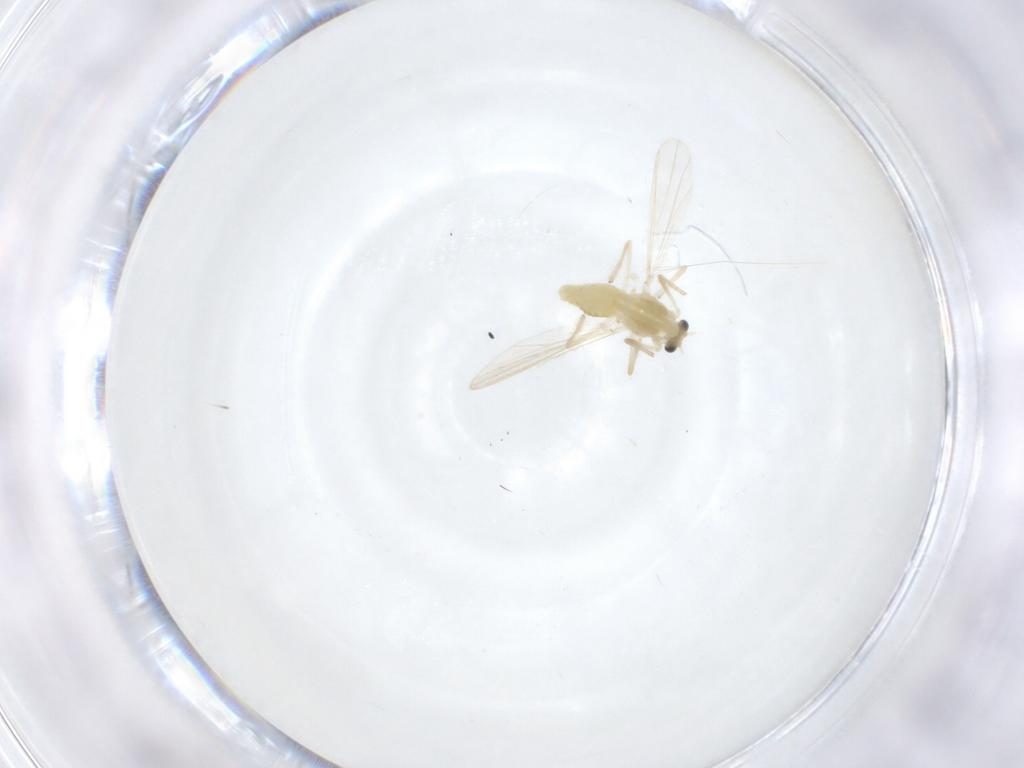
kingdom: Animalia
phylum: Arthropoda
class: Insecta
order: Diptera
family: Chironomidae
